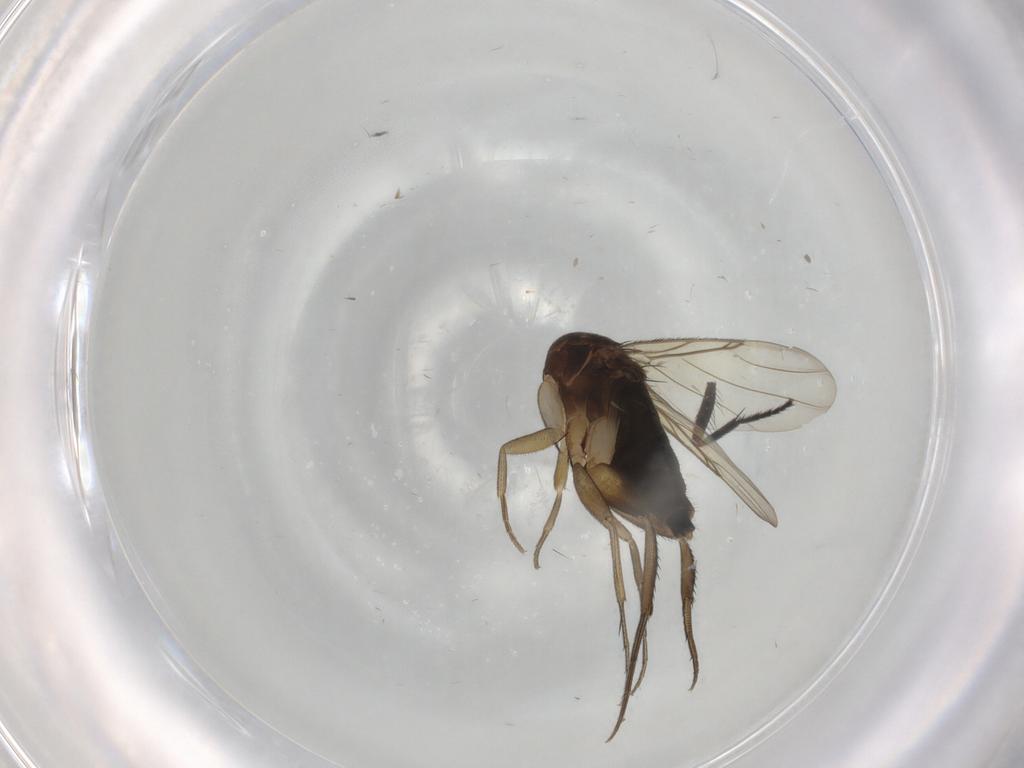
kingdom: Animalia
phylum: Arthropoda
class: Insecta
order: Diptera
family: Phoridae
